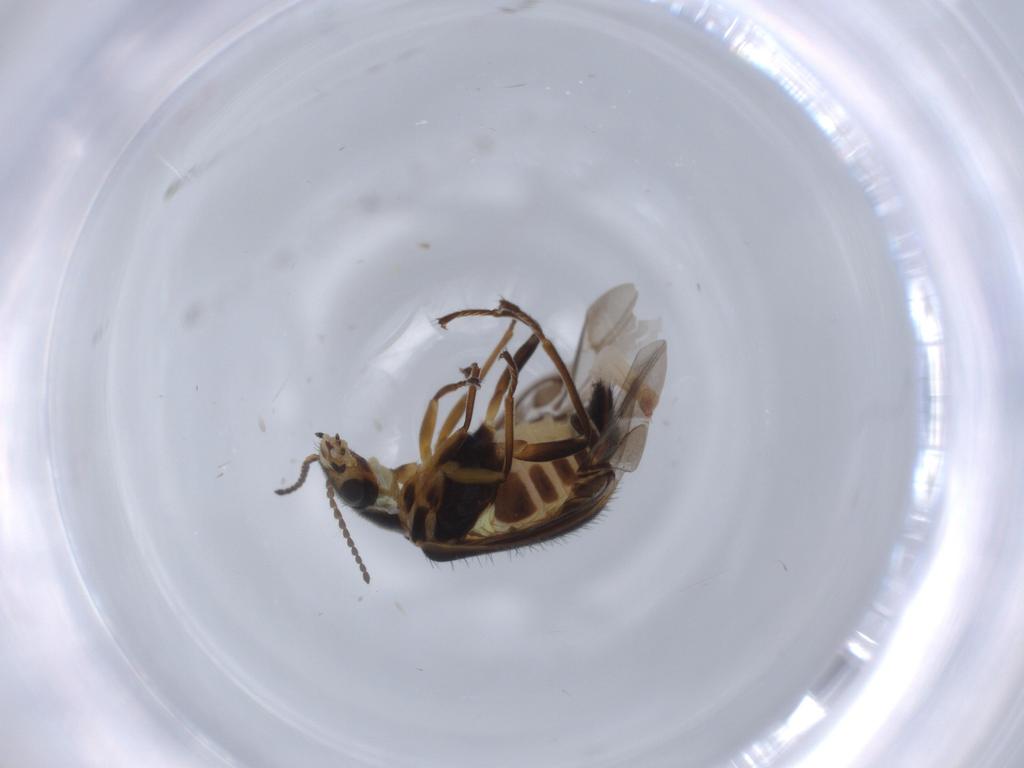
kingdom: Animalia
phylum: Arthropoda
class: Insecta
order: Coleoptera
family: Melyridae
